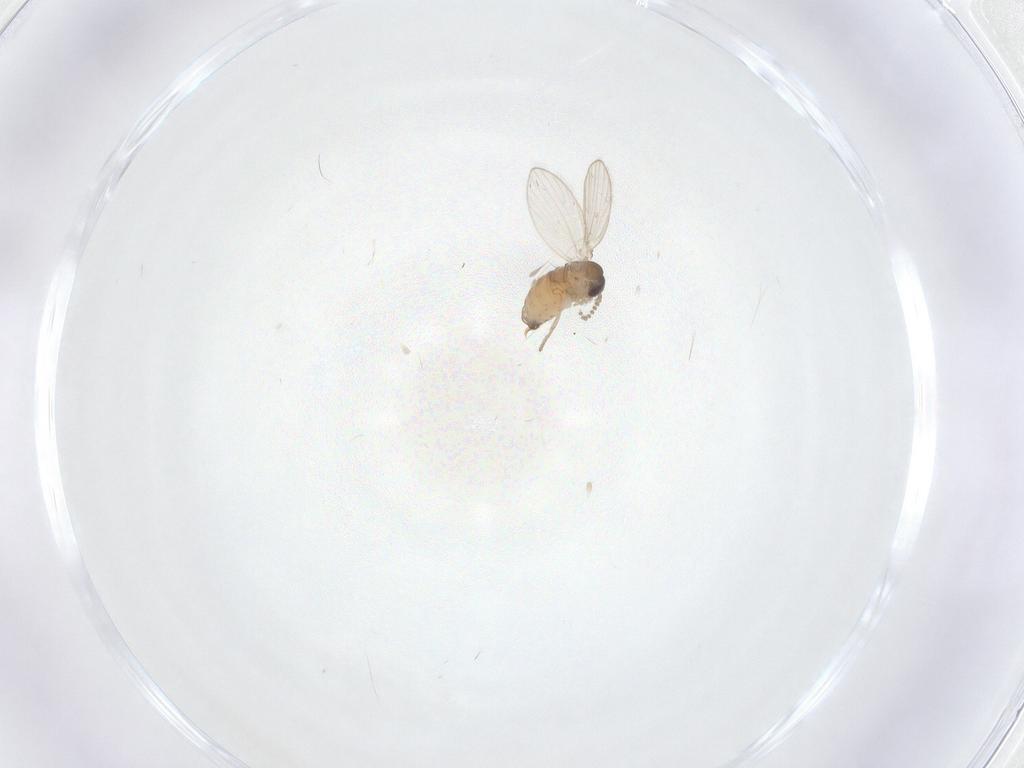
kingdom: Animalia
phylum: Arthropoda
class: Insecta
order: Diptera
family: Psychodidae
